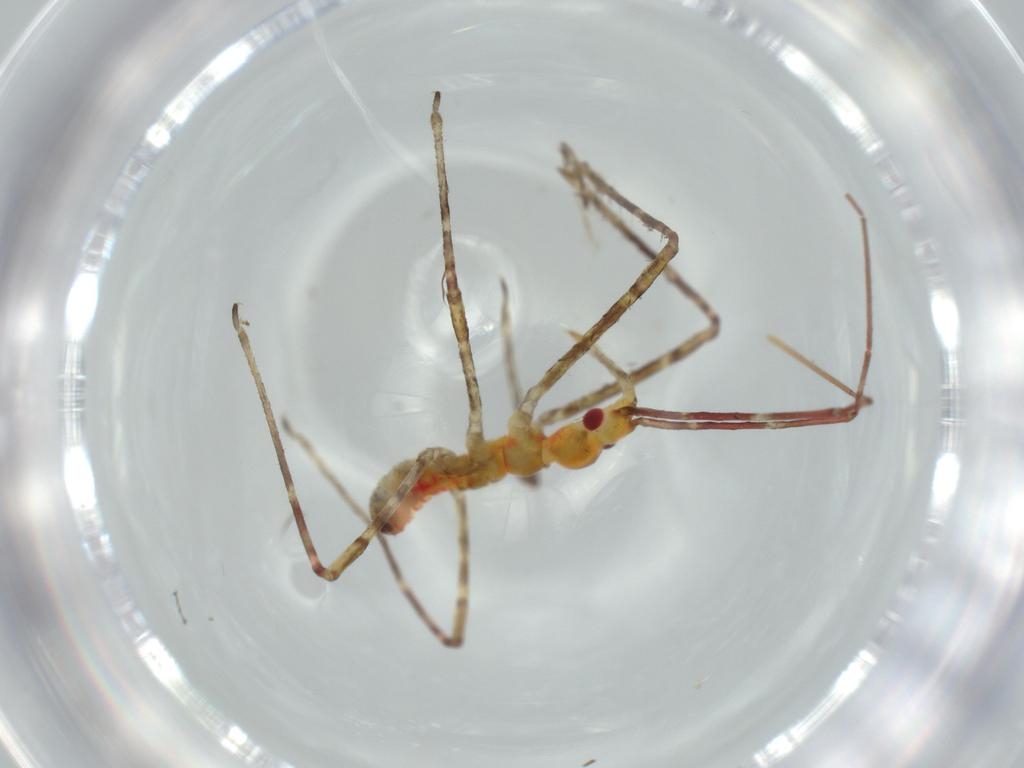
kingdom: Animalia
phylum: Arthropoda
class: Insecta
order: Hemiptera
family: Reduviidae
